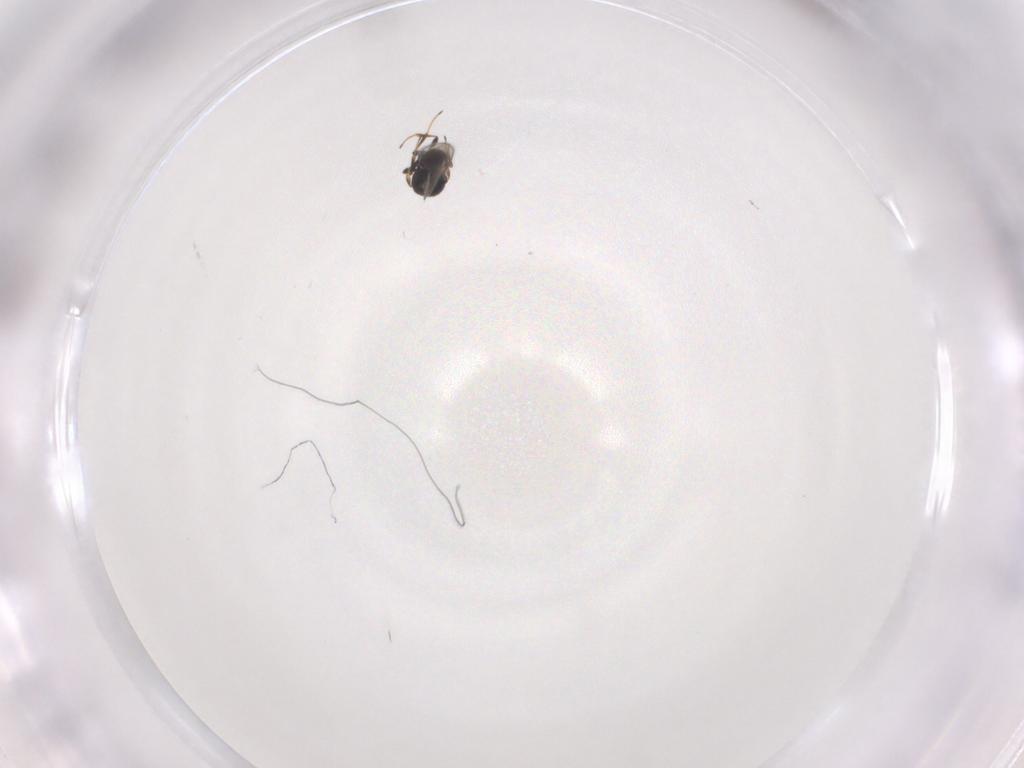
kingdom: Animalia
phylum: Arthropoda
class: Insecta
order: Hymenoptera
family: Scelionidae
